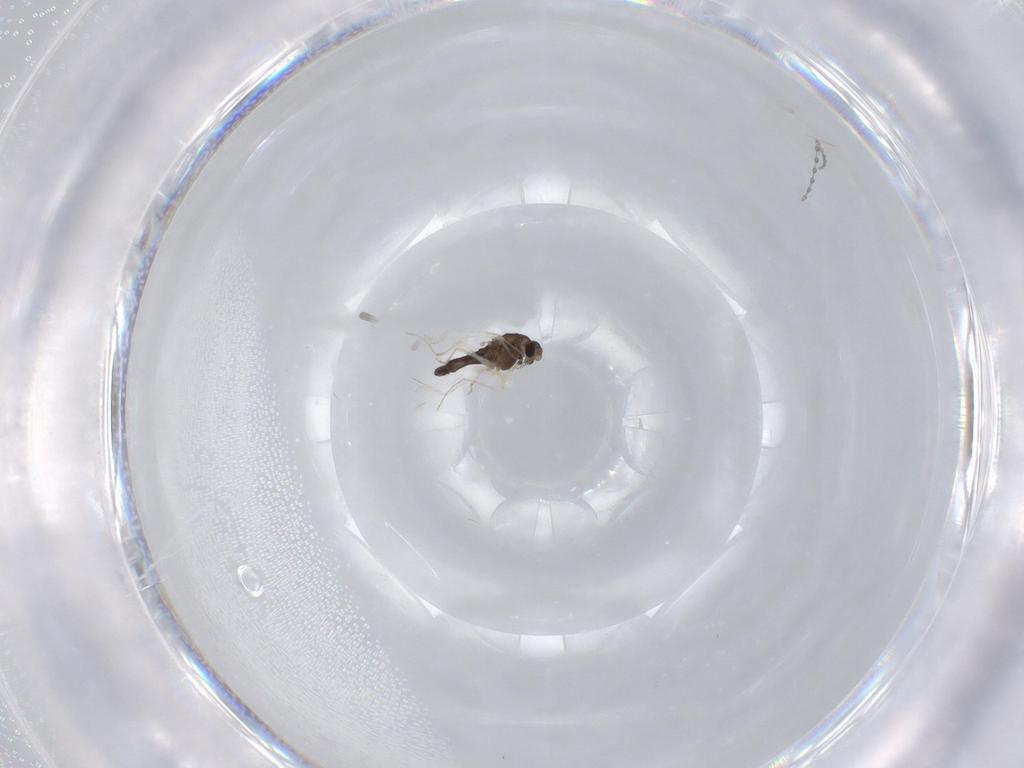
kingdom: Animalia
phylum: Arthropoda
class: Insecta
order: Diptera
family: Chironomidae
